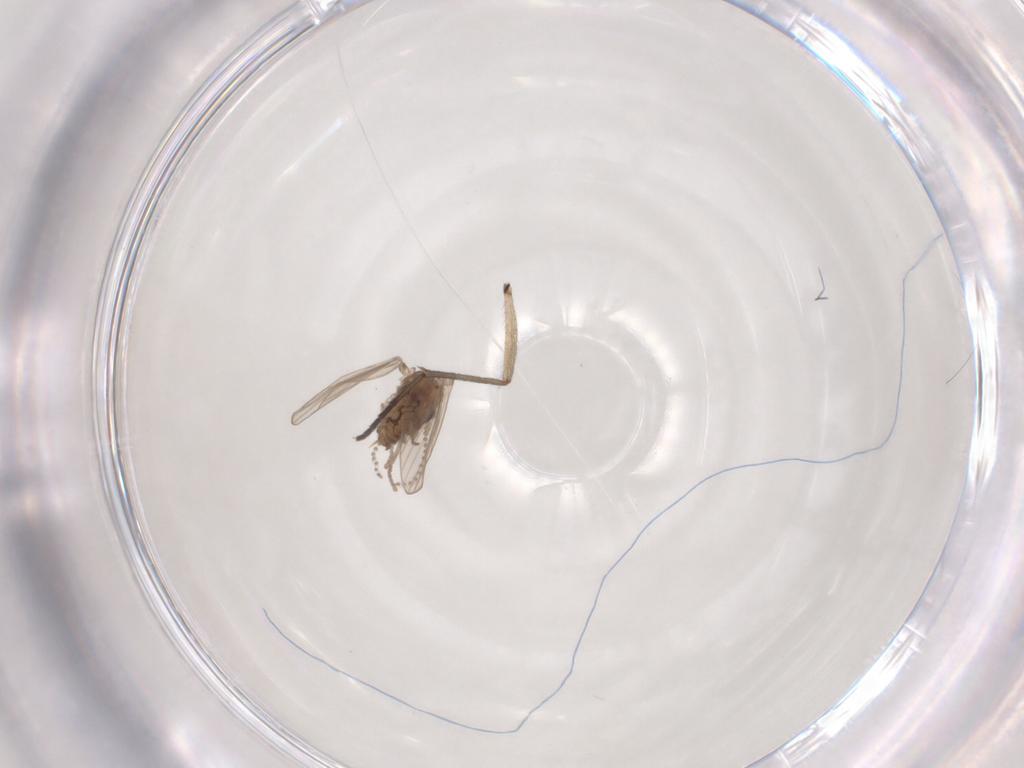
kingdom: Animalia
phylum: Arthropoda
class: Insecta
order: Diptera
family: Psychodidae
